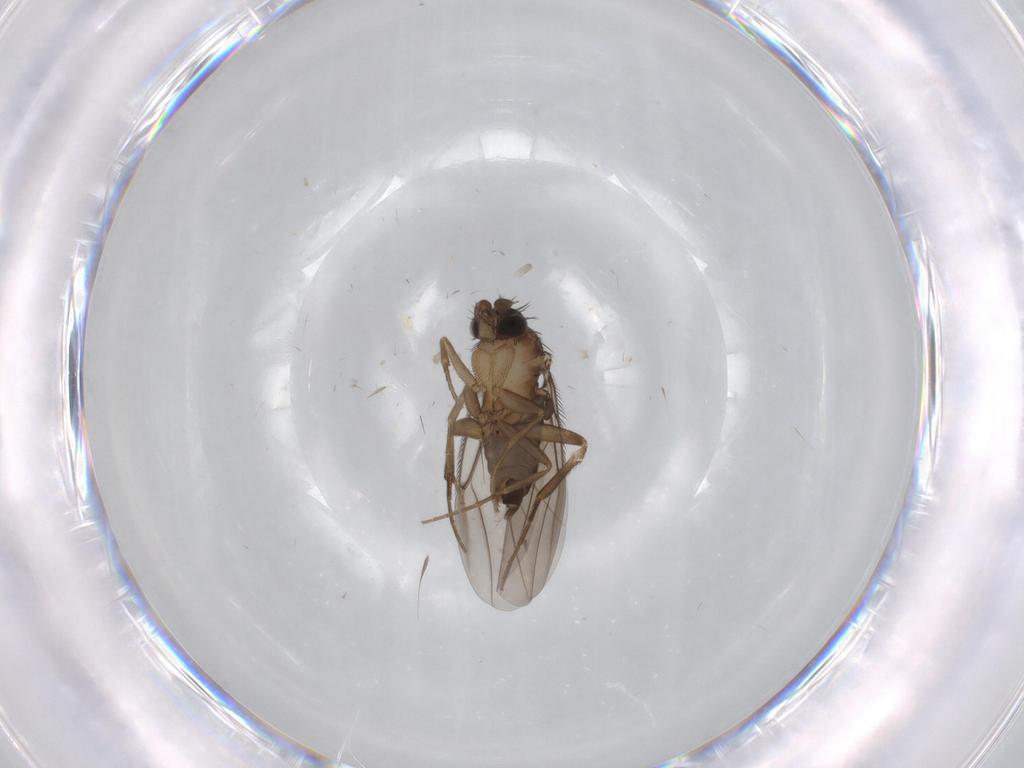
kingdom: Animalia
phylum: Arthropoda
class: Insecta
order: Diptera
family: Phoridae
